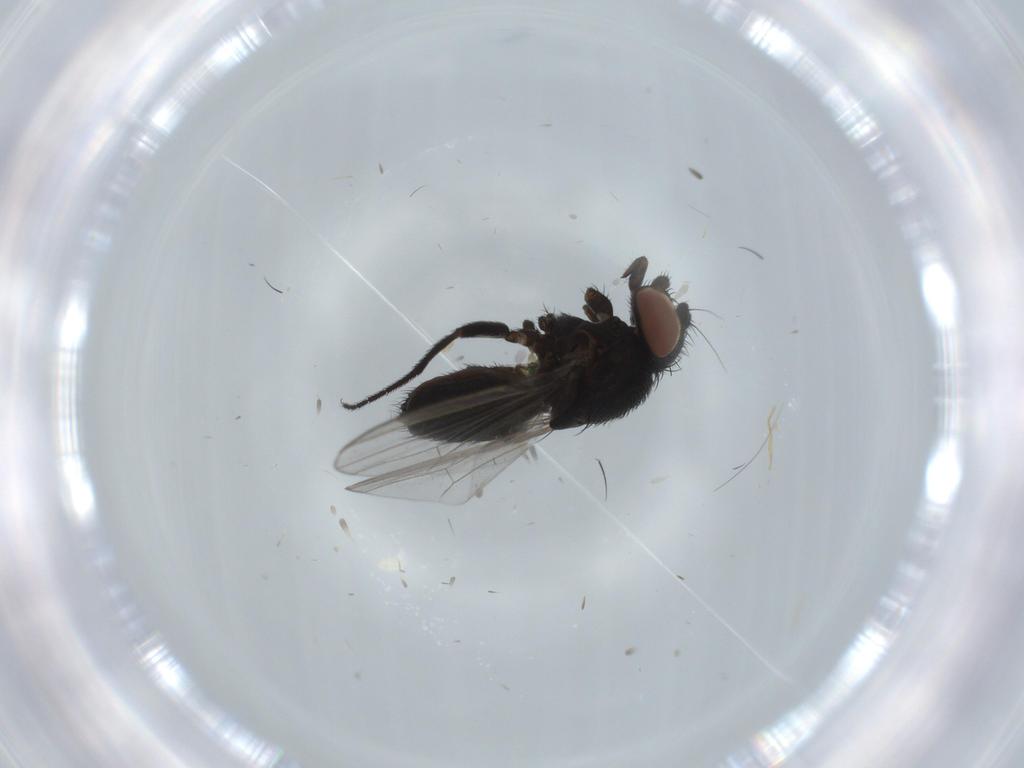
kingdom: Animalia
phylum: Arthropoda
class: Insecta
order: Diptera
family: Milichiidae
